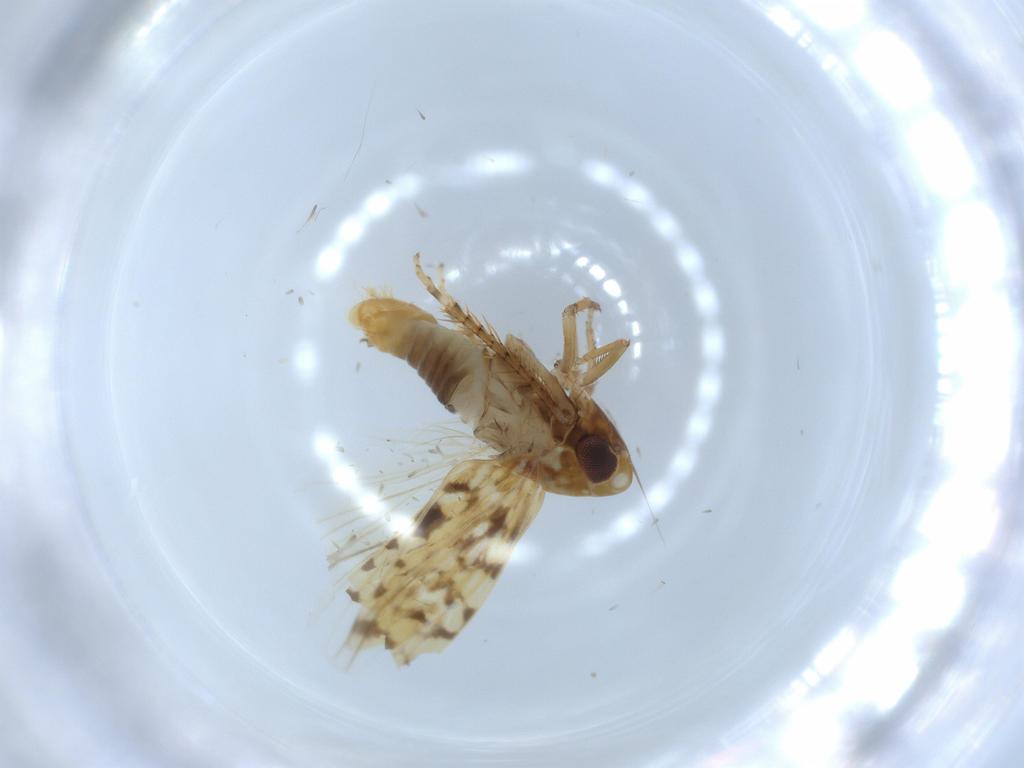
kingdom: Animalia
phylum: Arthropoda
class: Insecta
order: Hemiptera
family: Cicadellidae
